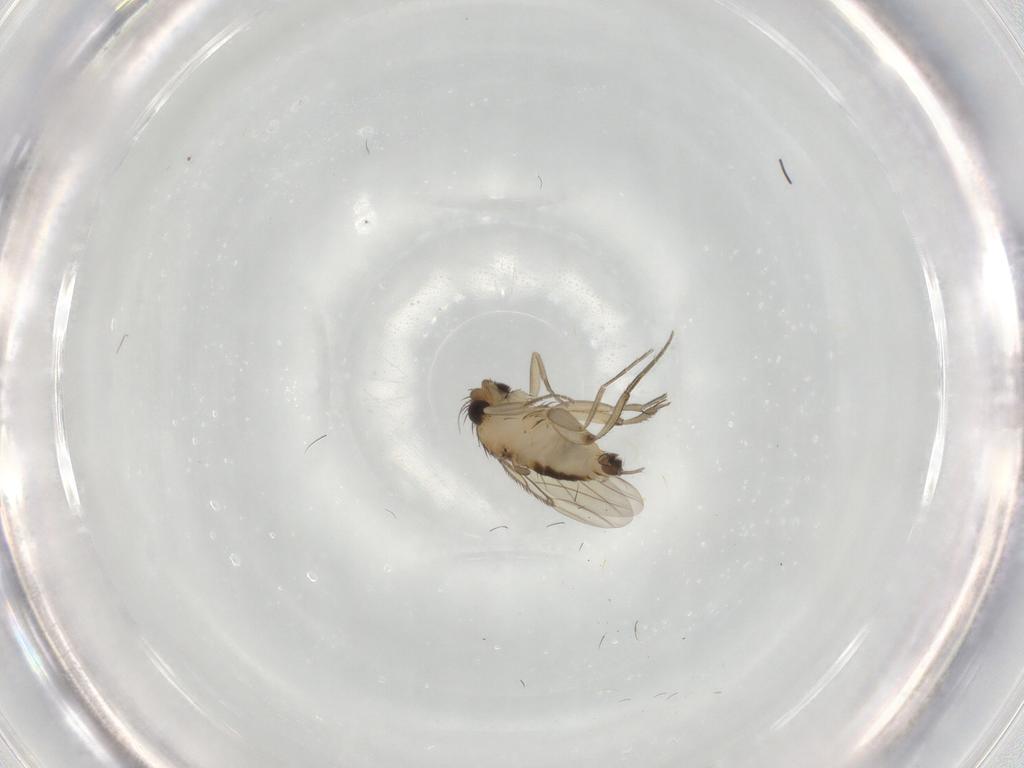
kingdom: Animalia
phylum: Arthropoda
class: Insecta
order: Diptera
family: Phoridae
